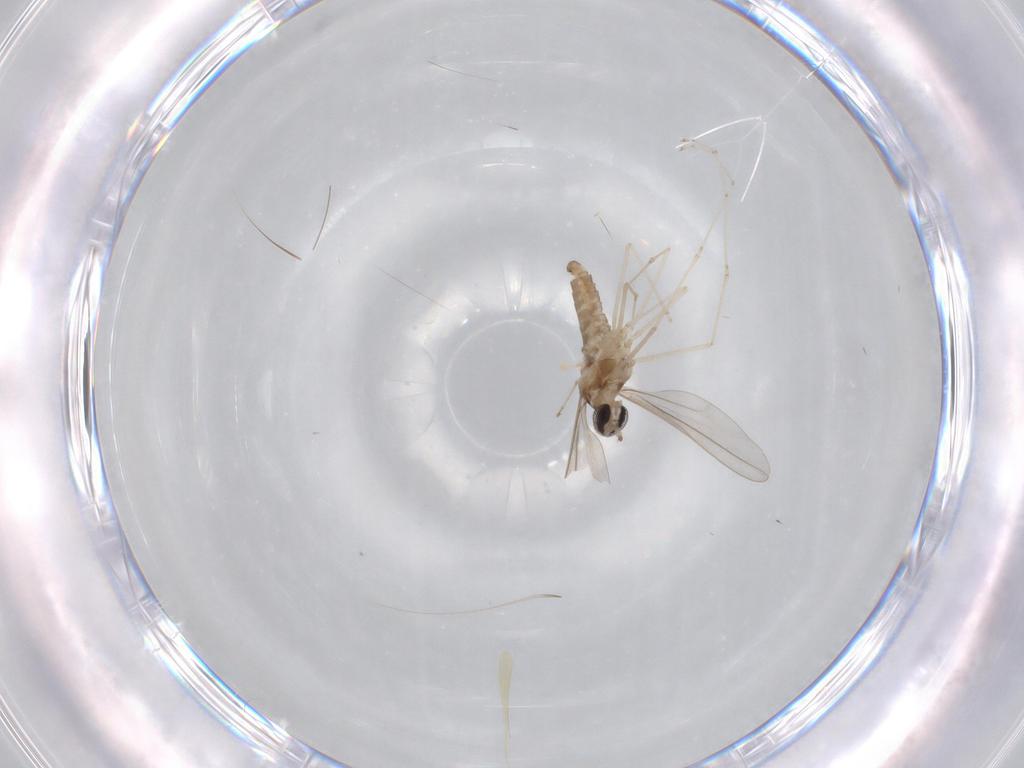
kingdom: Animalia
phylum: Arthropoda
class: Insecta
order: Diptera
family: Cecidomyiidae
